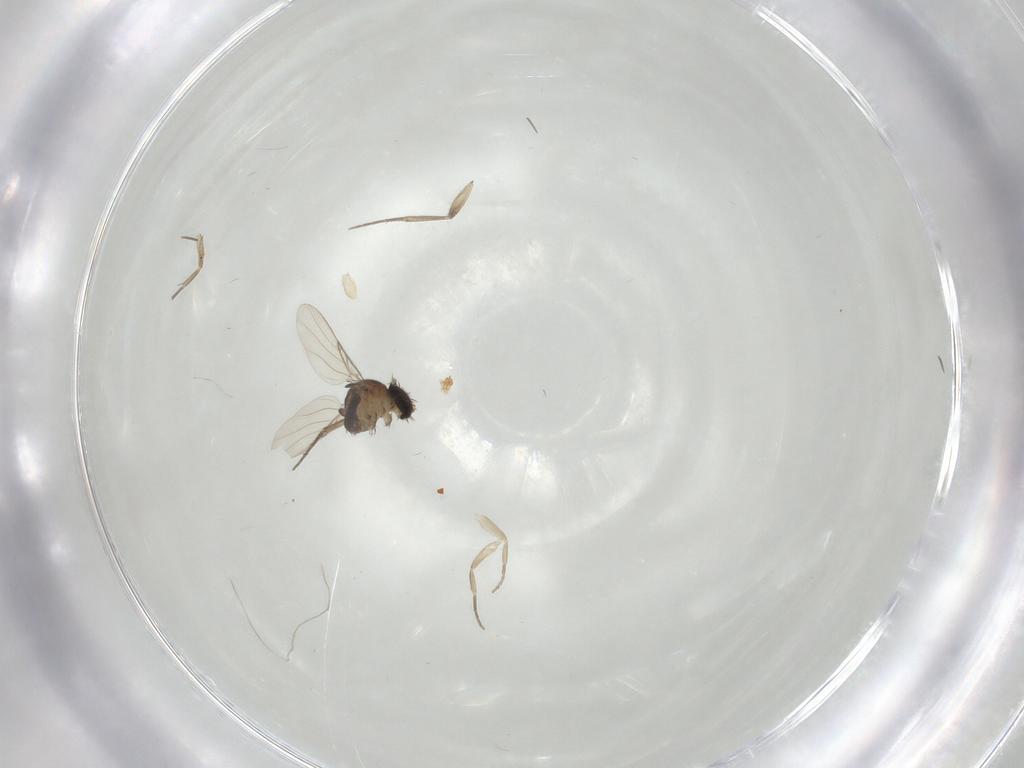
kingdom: Animalia
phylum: Arthropoda
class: Insecta
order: Diptera
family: Phoridae
